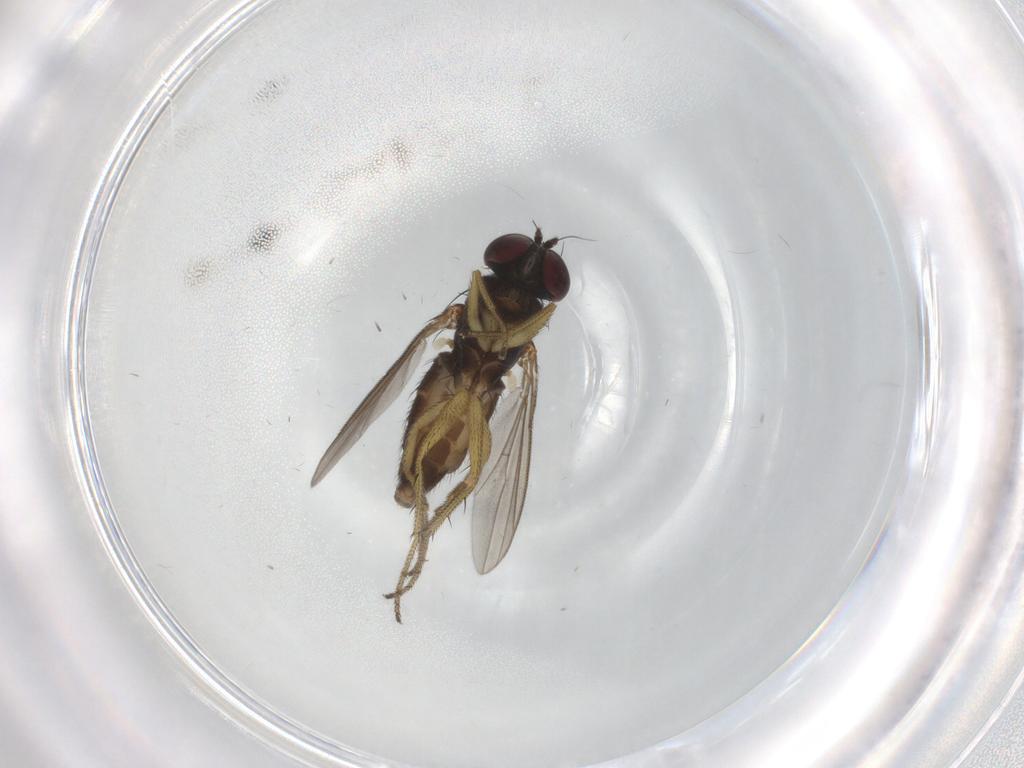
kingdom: Animalia
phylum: Arthropoda
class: Insecta
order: Diptera
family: Dolichopodidae
